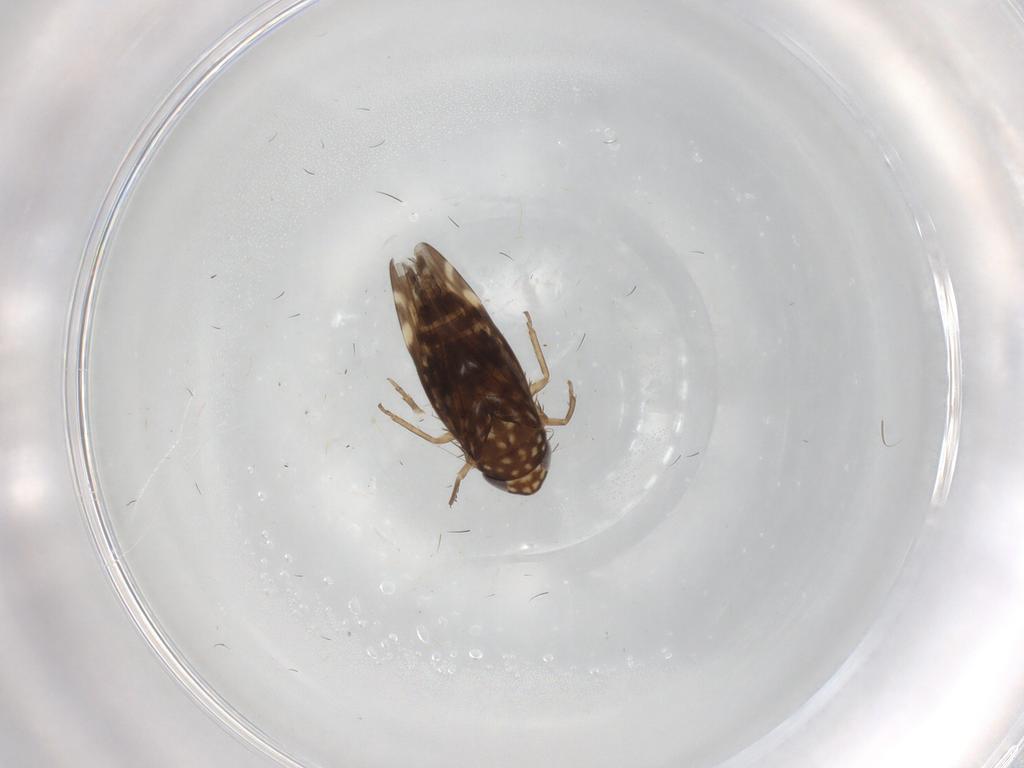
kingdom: Animalia
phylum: Arthropoda
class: Insecta
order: Hemiptera
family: Cicadellidae
